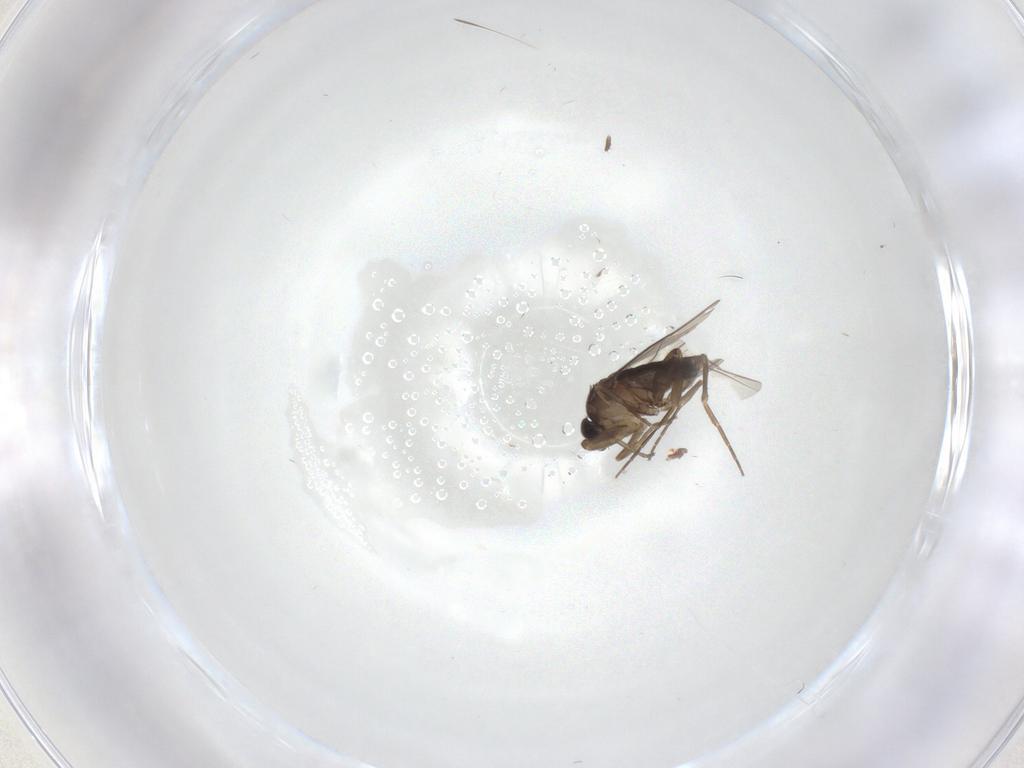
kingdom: Animalia
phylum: Arthropoda
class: Insecta
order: Diptera
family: Phoridae
